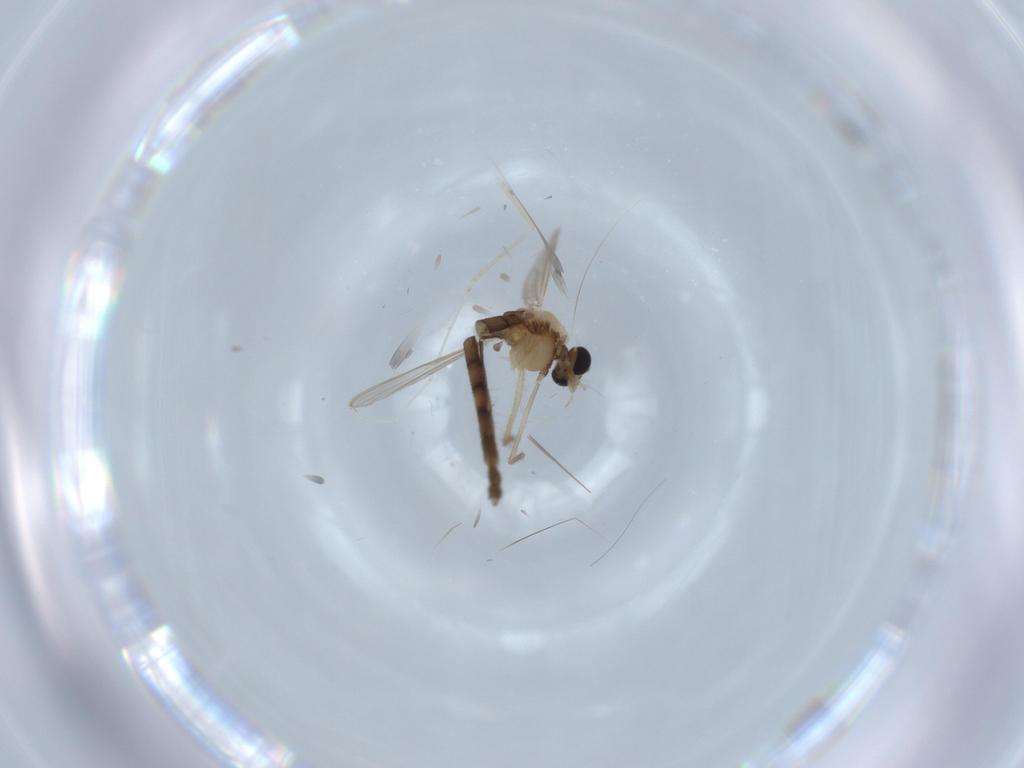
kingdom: Animalia
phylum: Arthropoda
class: Insecta
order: Diptera
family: Chironomidae
